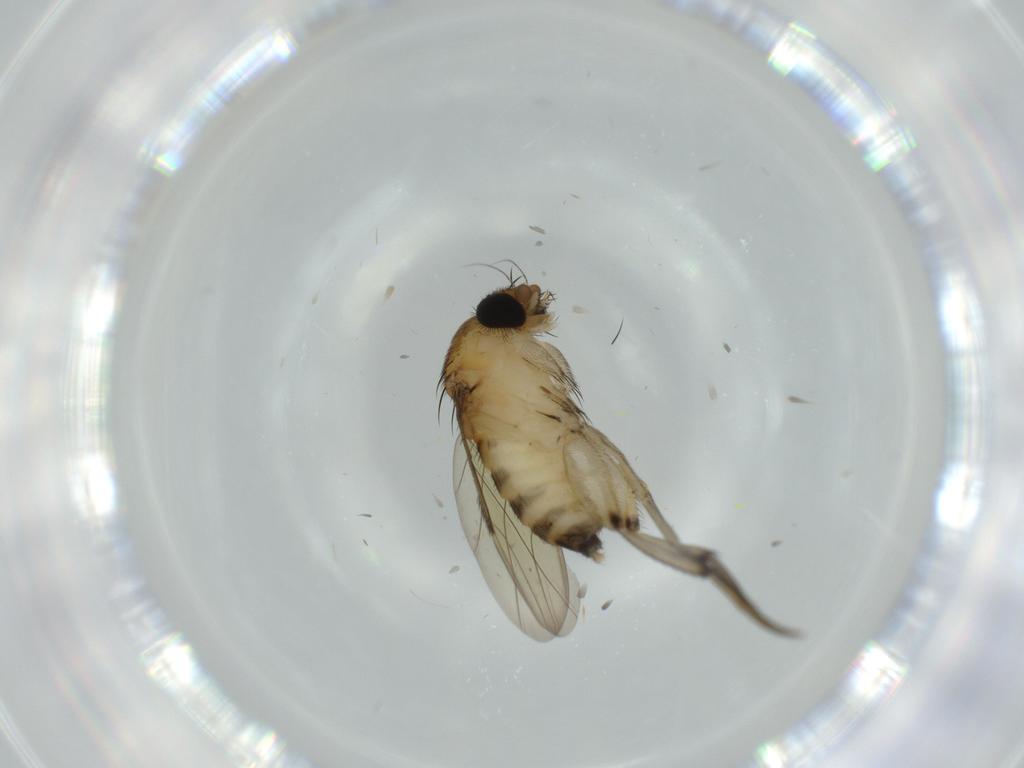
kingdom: Animalia
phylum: Arthropoda
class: Insecta
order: Diptera
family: Phoridae
